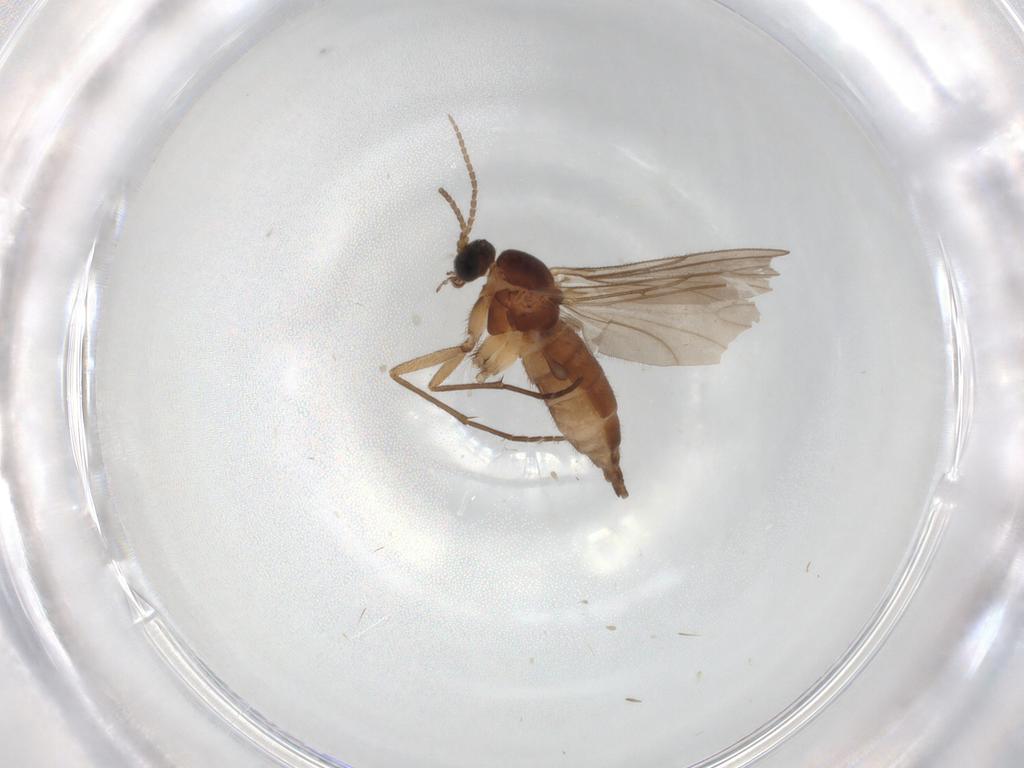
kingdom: Animalia
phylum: Arthropoda
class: Insecta
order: Diptera
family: Sciaridae
